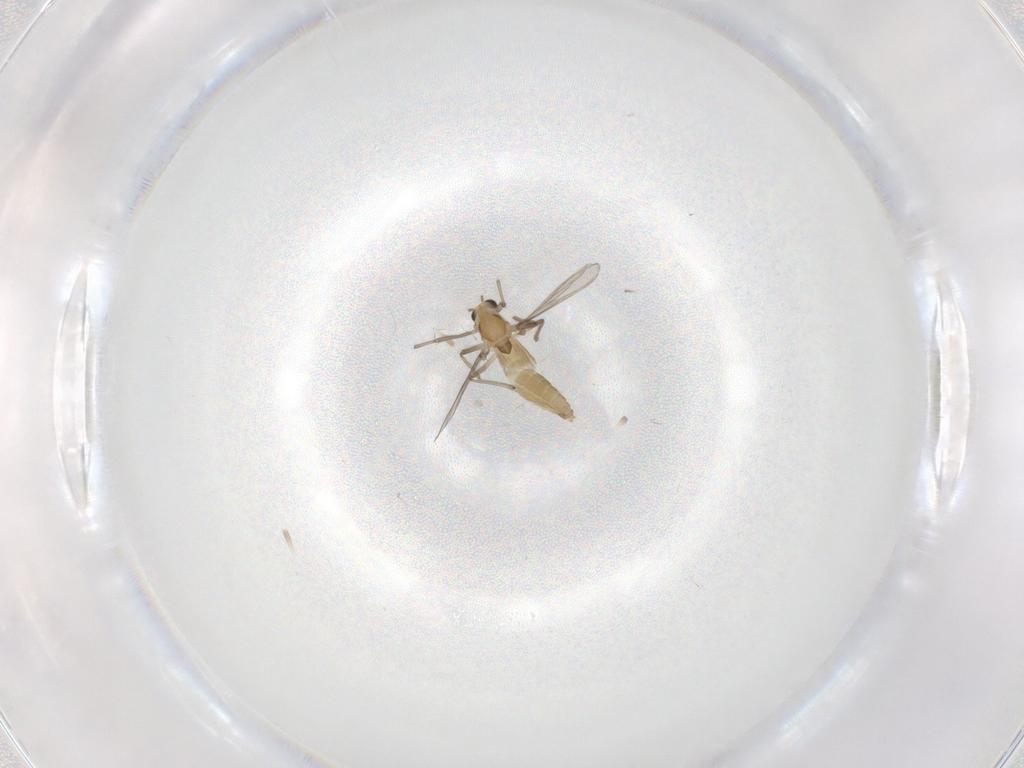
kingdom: Animalia
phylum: Arthropoda
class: Insecta
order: Diptera
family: Chironomidae
